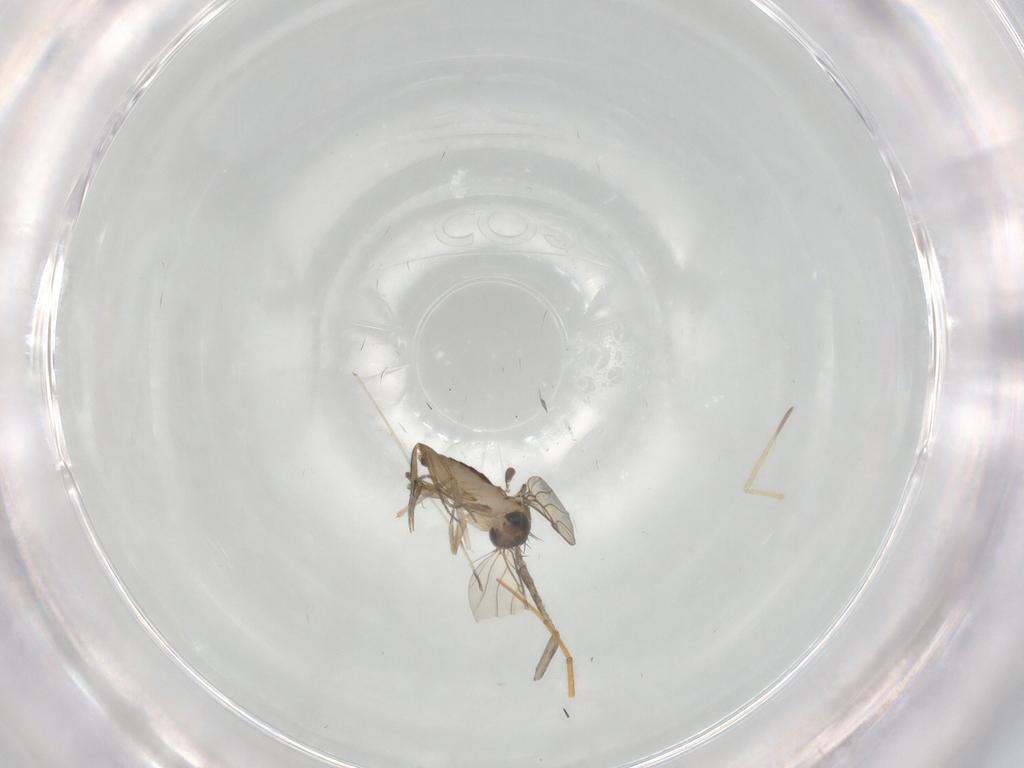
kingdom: Animalia
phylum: Arthropoda
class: Insecta
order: Diptera
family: Psychodidae
